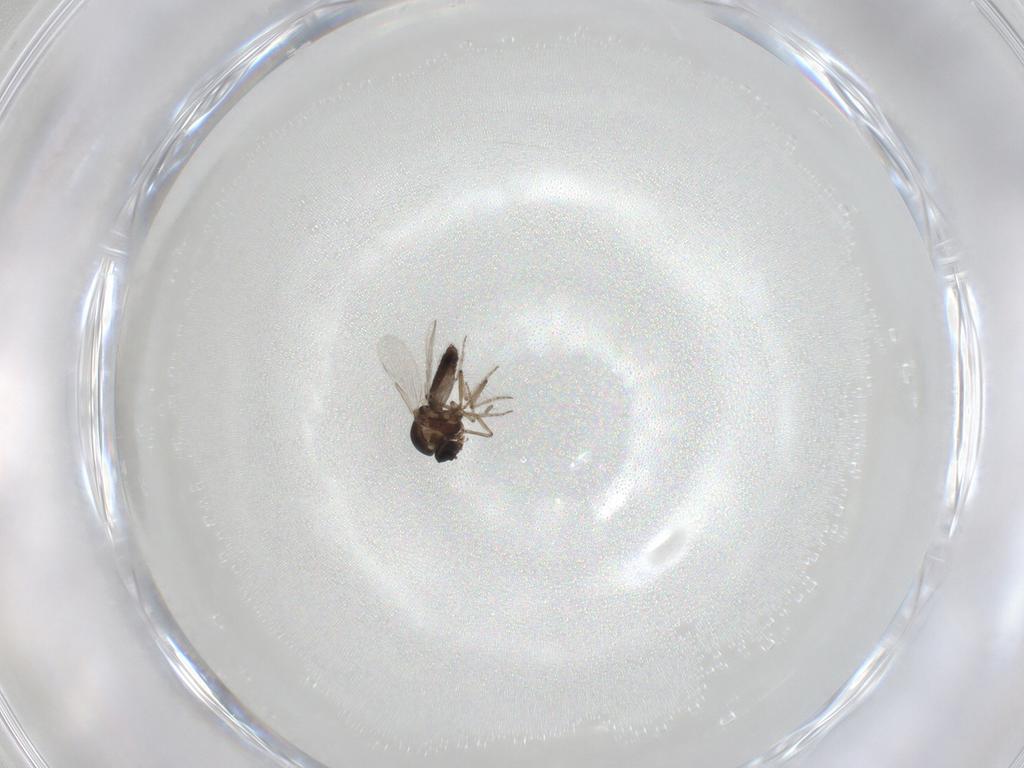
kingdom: Animalia
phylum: Arthropoda
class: Insecta
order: Diptera
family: Ceratopogonidae
